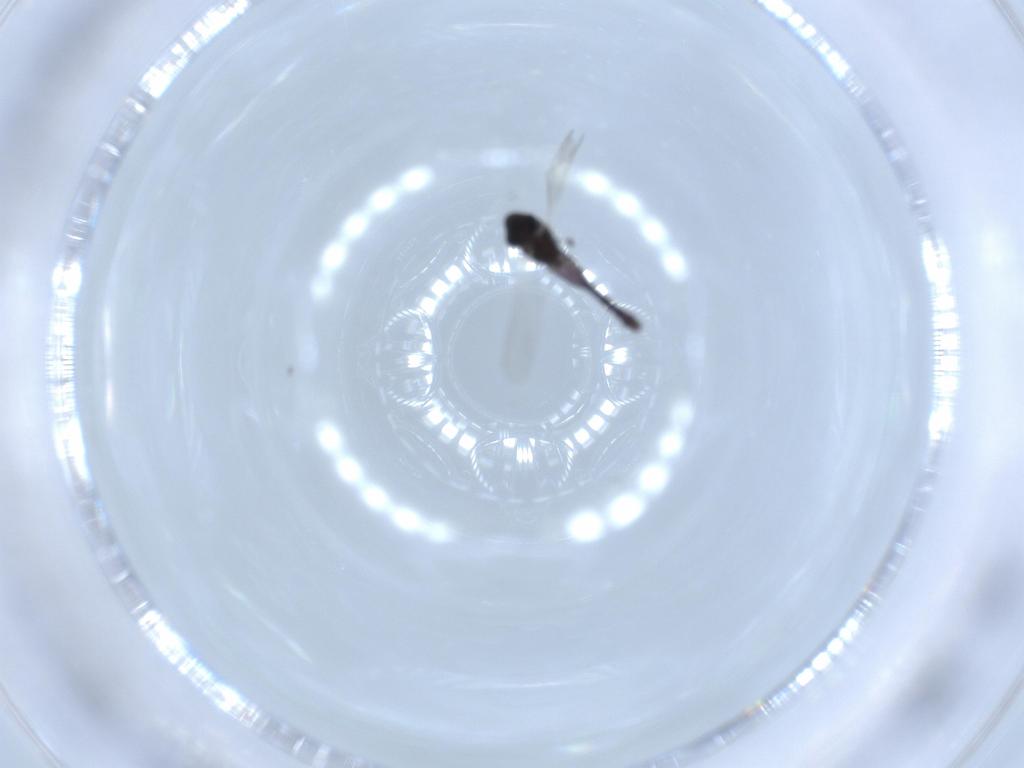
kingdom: Animalia
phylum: Arthropoda
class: Insecta
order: Diptera
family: Chironomidae
